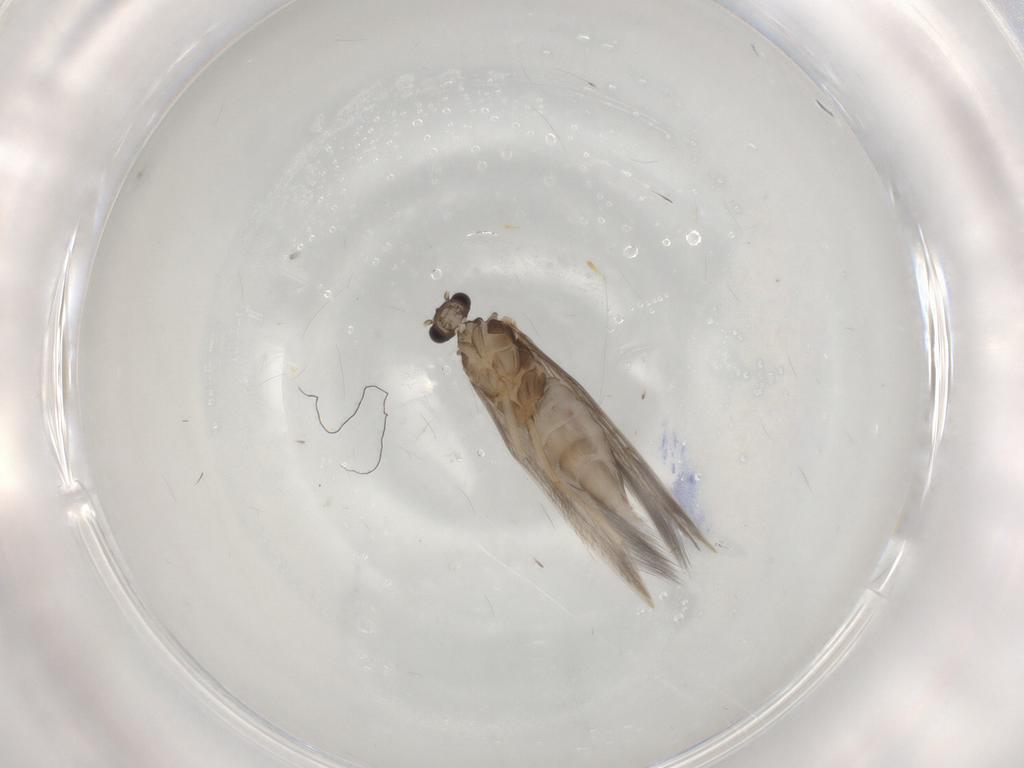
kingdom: Animalia
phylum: Arthropoda
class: Insecta
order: Trichoptera
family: Hydroptilidae
